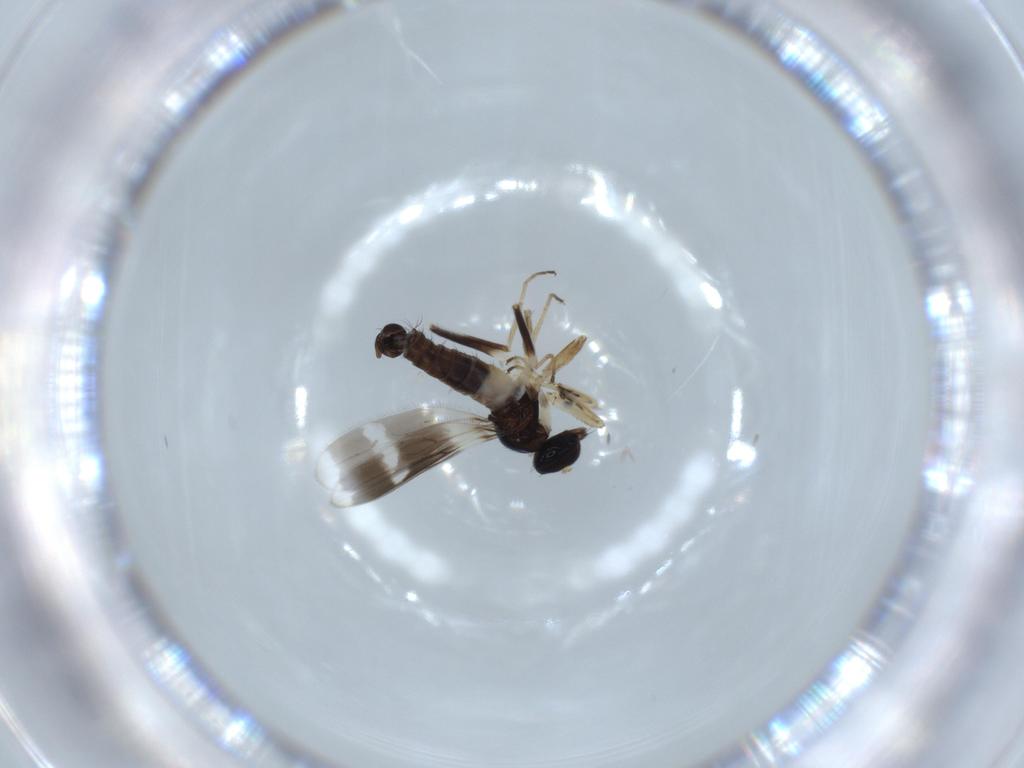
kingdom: Animalia
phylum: Arthropoda
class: Insecta
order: Diptera
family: Hybotidae
